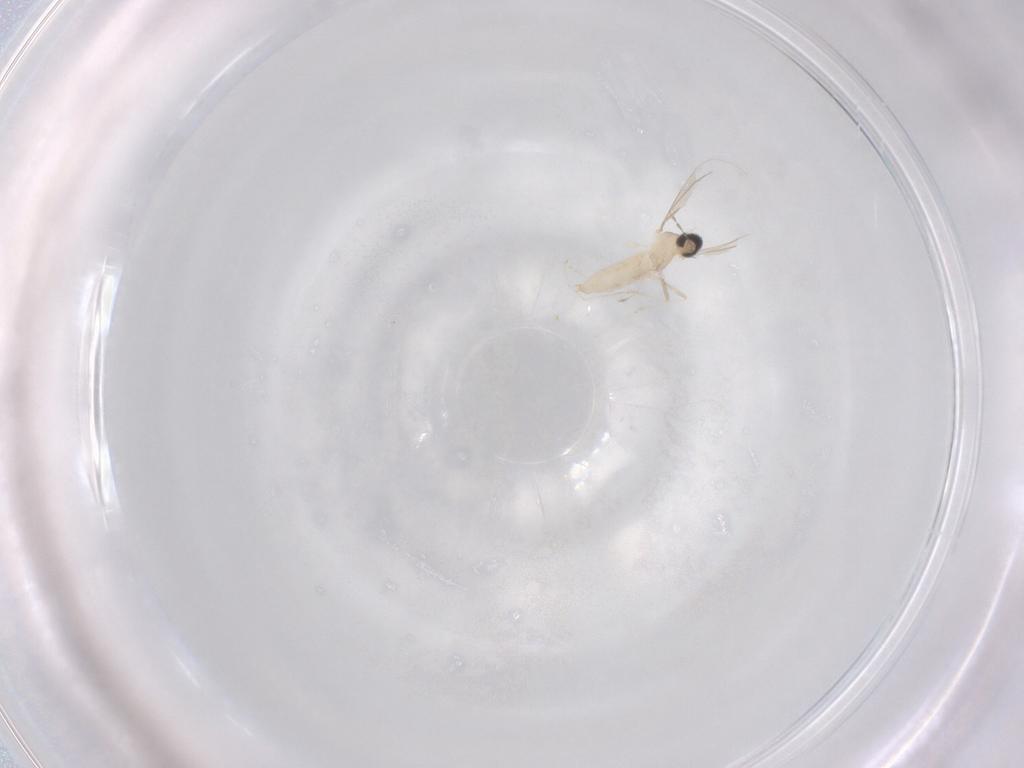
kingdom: Animalia
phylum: Arthropoda
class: Insecta
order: Diptera
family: Cecidomyiidae
